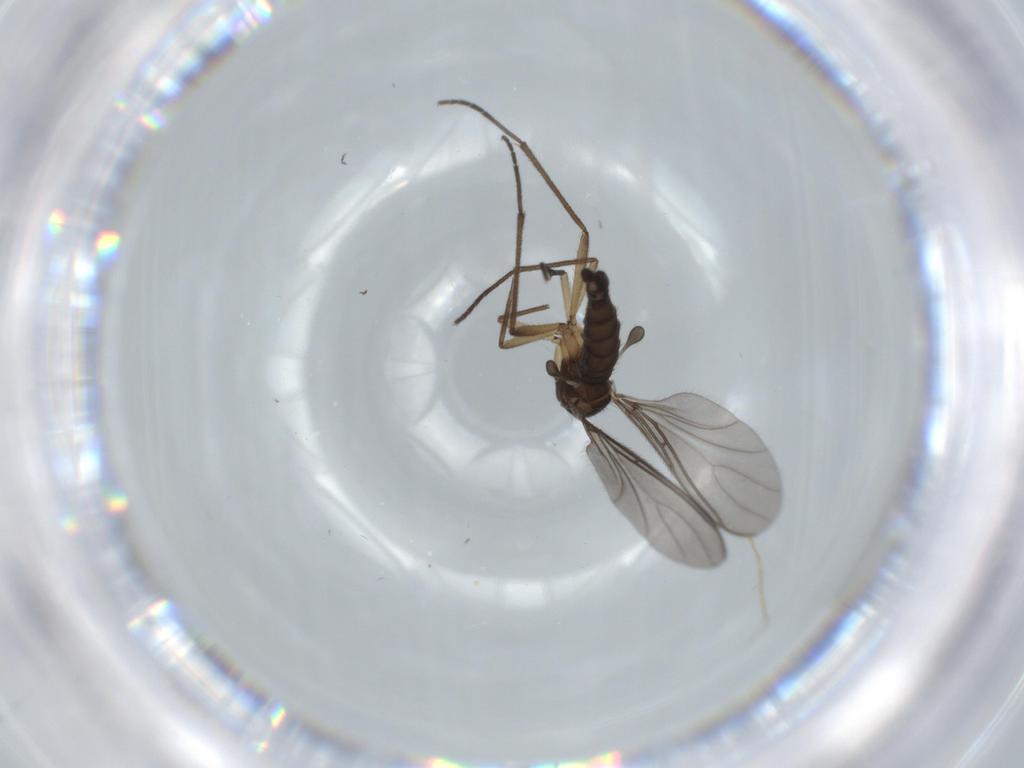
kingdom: Animalia
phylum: Arthropoda
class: Insecta
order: Diptera
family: Sciaridae
